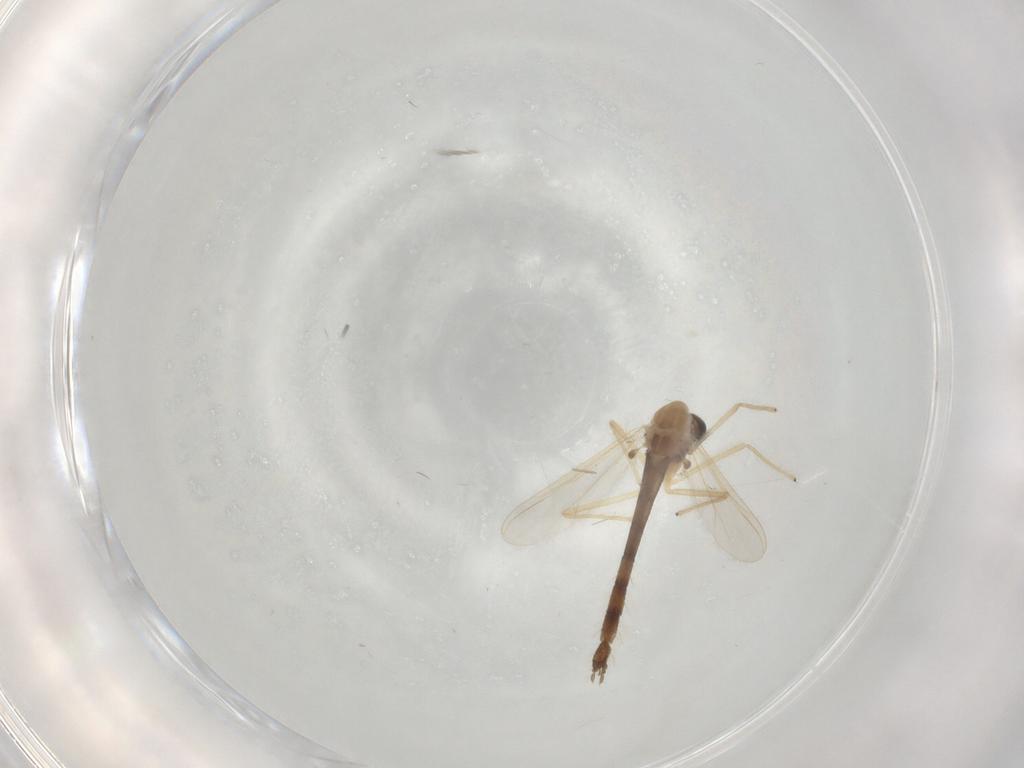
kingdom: Animalia
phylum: Arthropoda
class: Insecta
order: Diptera
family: Chironomidae
